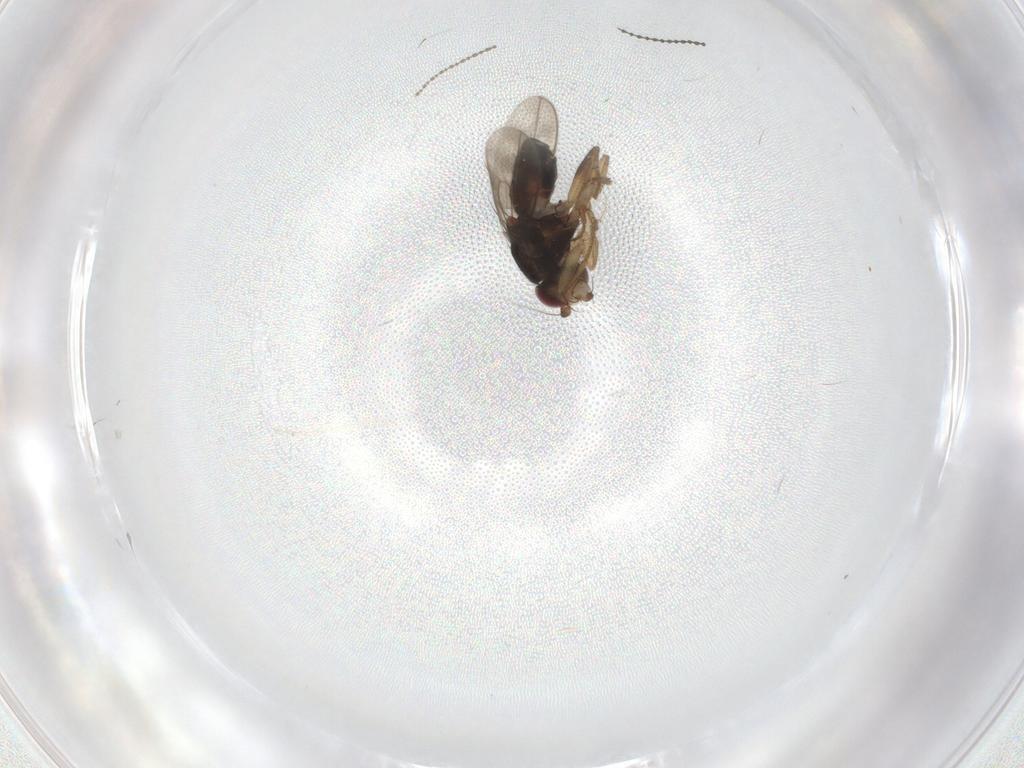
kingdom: Animalia
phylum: Arthropoda
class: Insecta
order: Diptera
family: Sphaeroceridae
